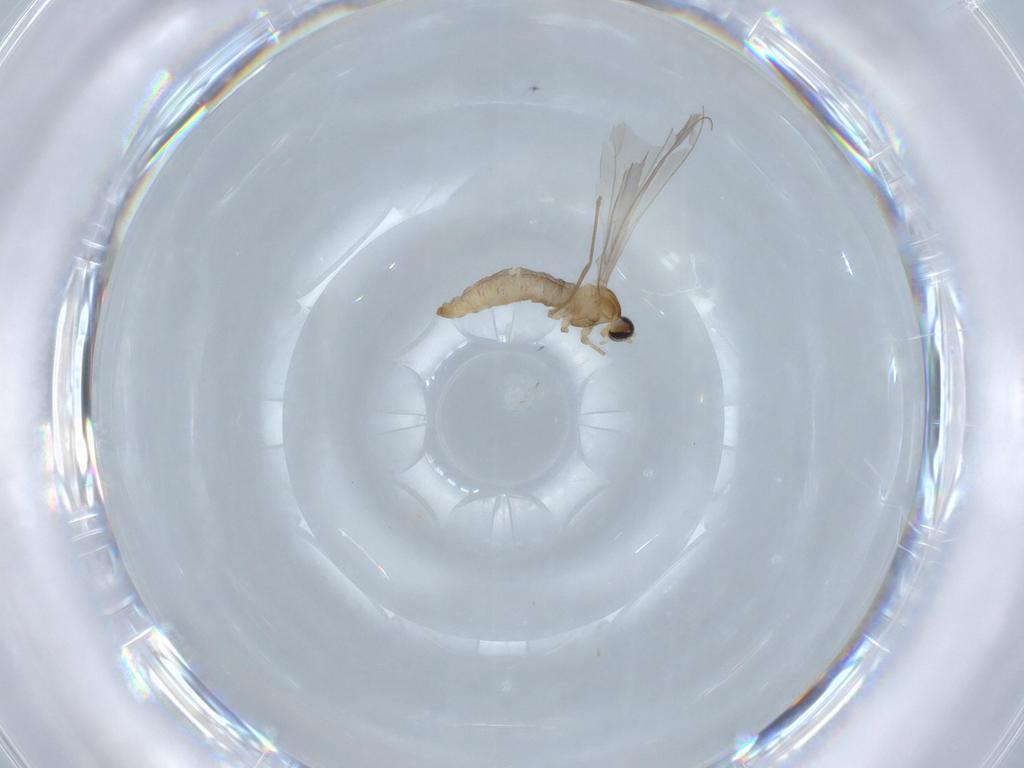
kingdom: Animalia
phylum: Arthropoda
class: Insecta
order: Diptera
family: Cecidomyiidae
